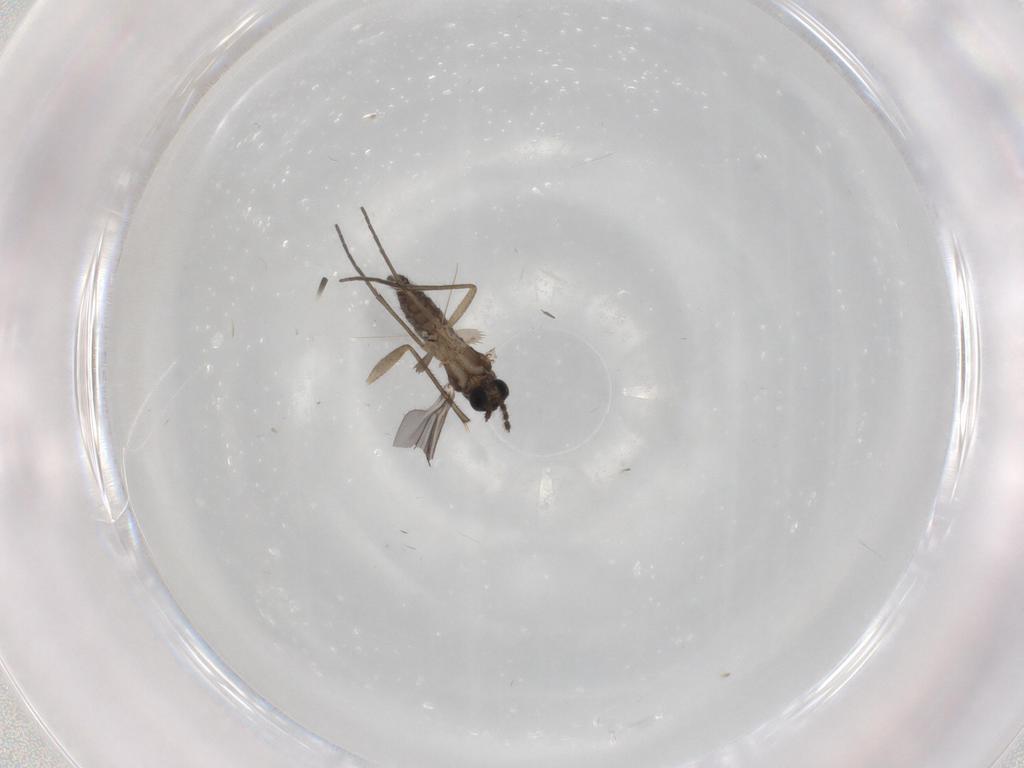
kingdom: Animalia
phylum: Arthropoda
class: Insecta
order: Diptera
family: Sciaridae
